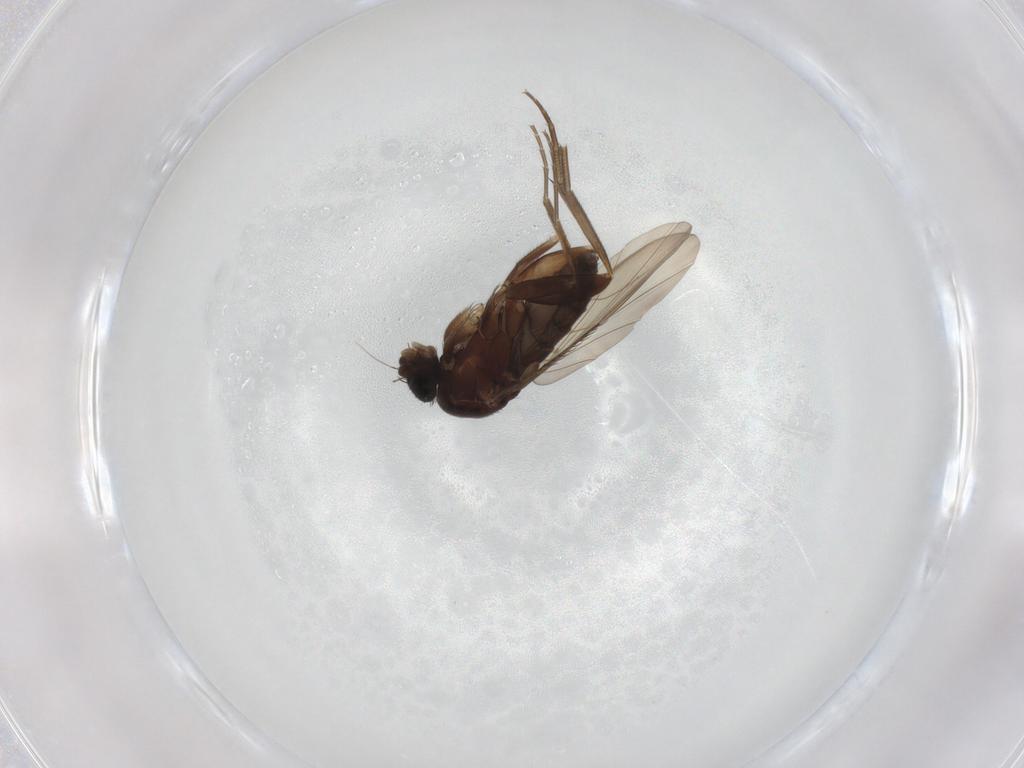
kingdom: Animalia
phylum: Arthropoda
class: Insecta
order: Diptera
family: Phoridae
